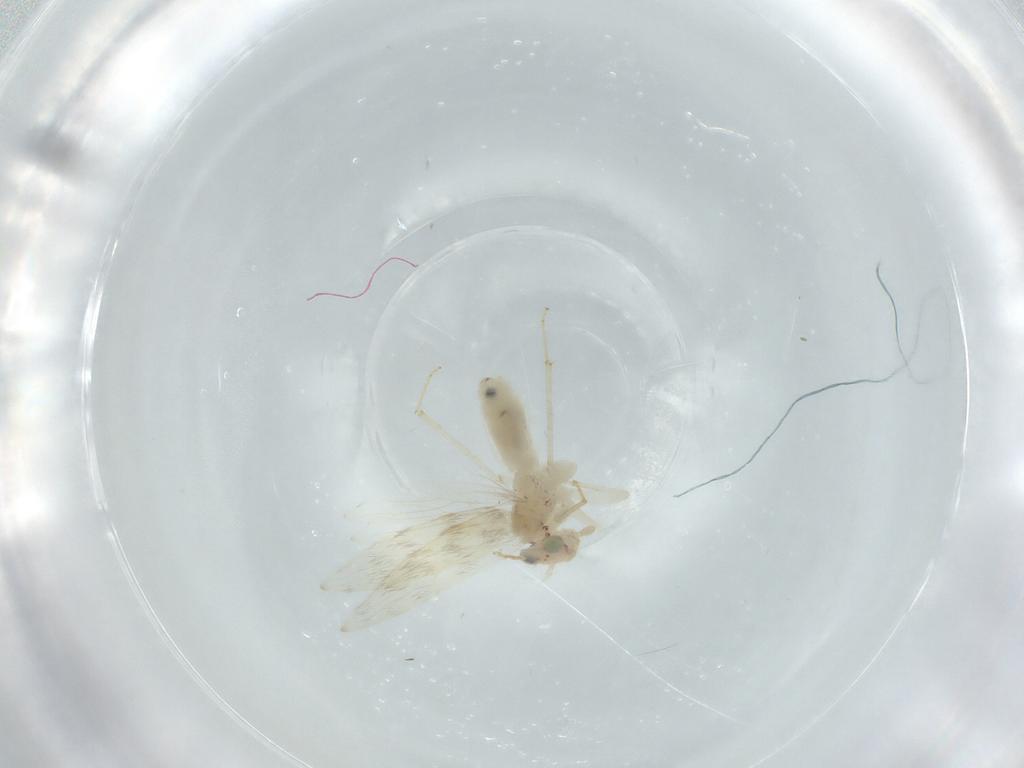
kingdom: Animalia
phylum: Arthropoda
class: Insecta
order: Psocodea
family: Lepidopsocidae
